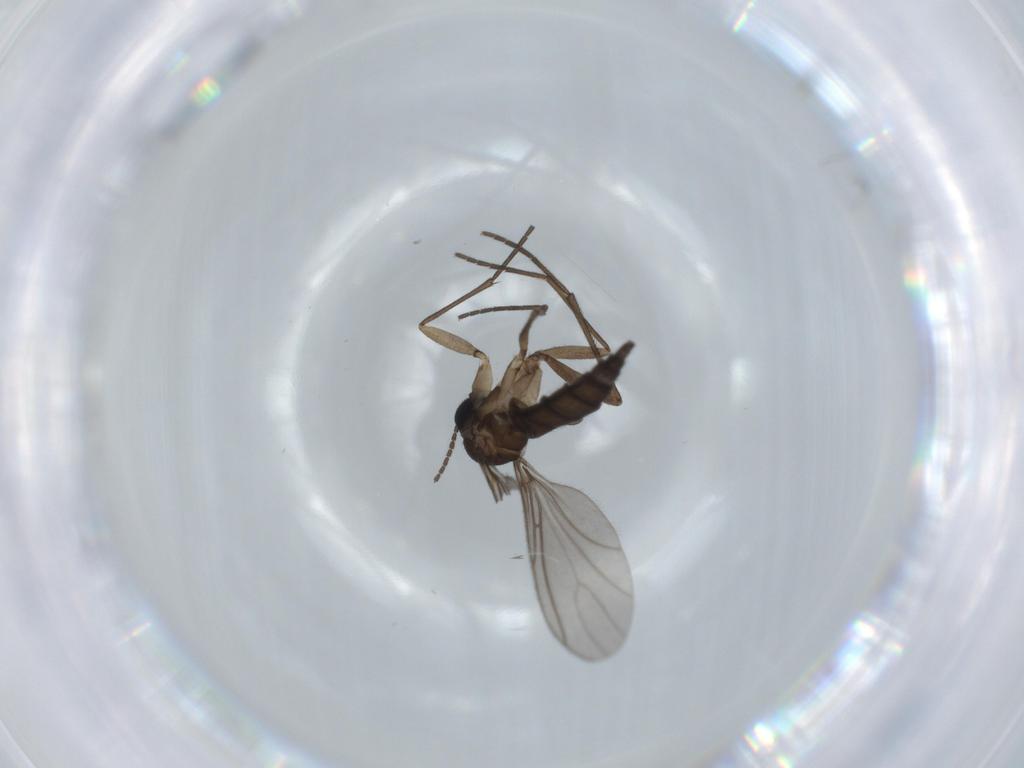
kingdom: Animalia
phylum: Arthropoda
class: Insecta
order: Diptera
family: Sciaridae
